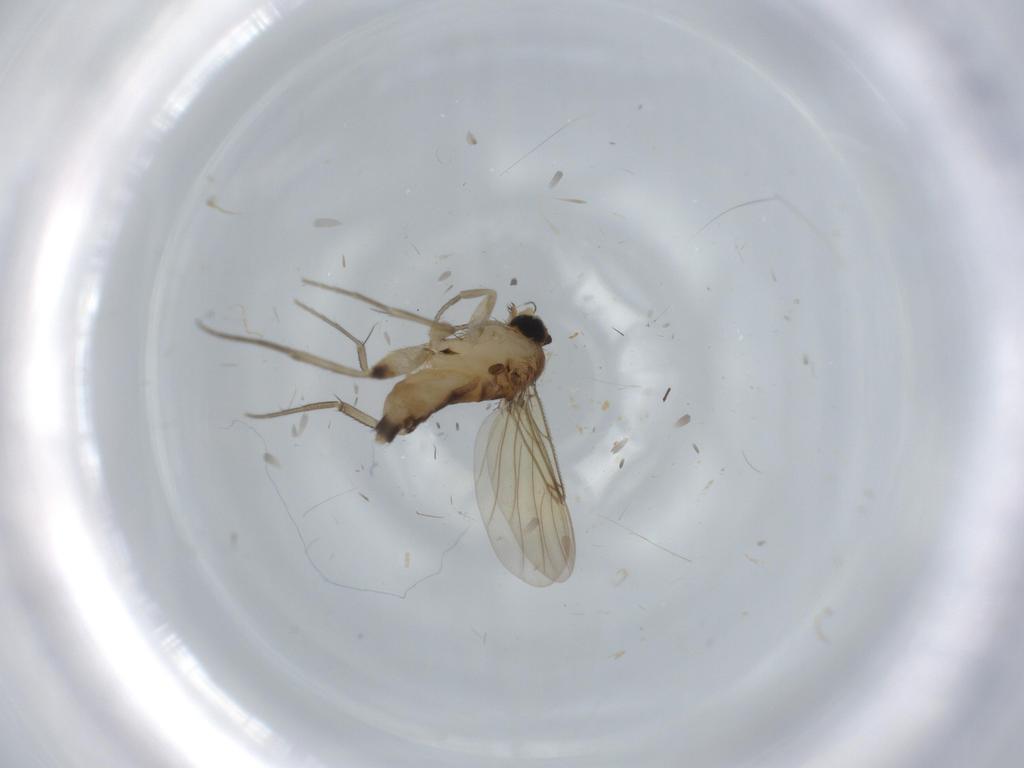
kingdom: Animalia
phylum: Arthropoda
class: Insecta
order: Diptera
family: Phoridae
